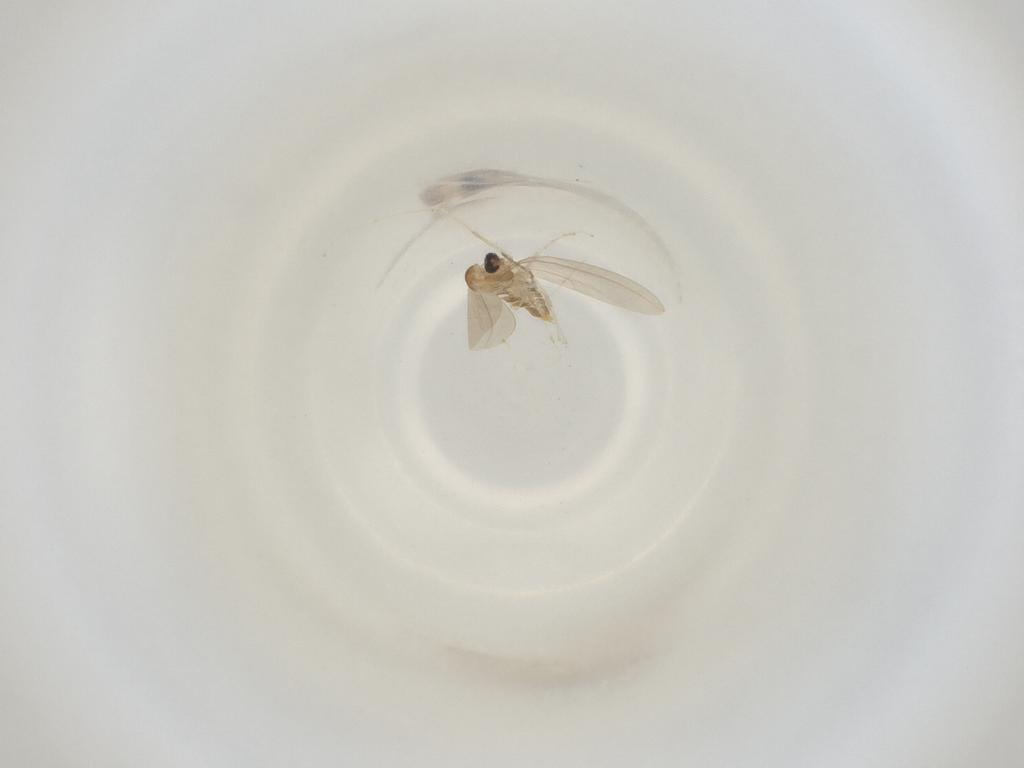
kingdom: Animalia
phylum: Arthropoda
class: Insecta
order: Diptera
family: Cecidomyiidae
